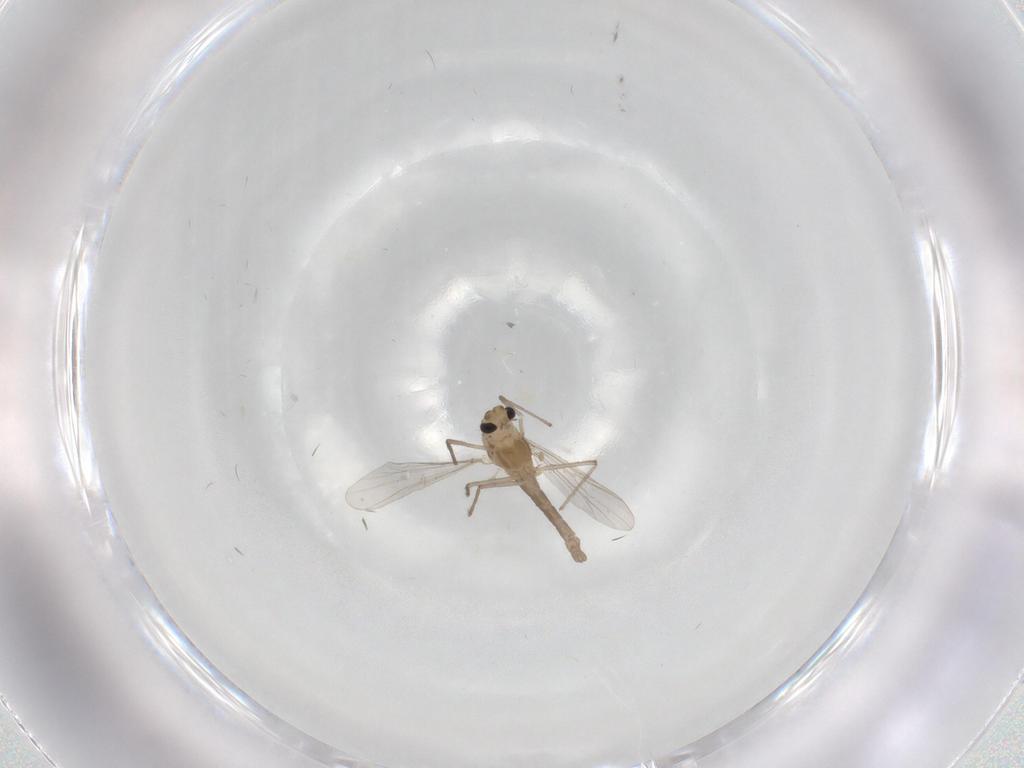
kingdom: Animalia
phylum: Arthropoda
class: Insecta
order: Diptera
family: Chironomidae
